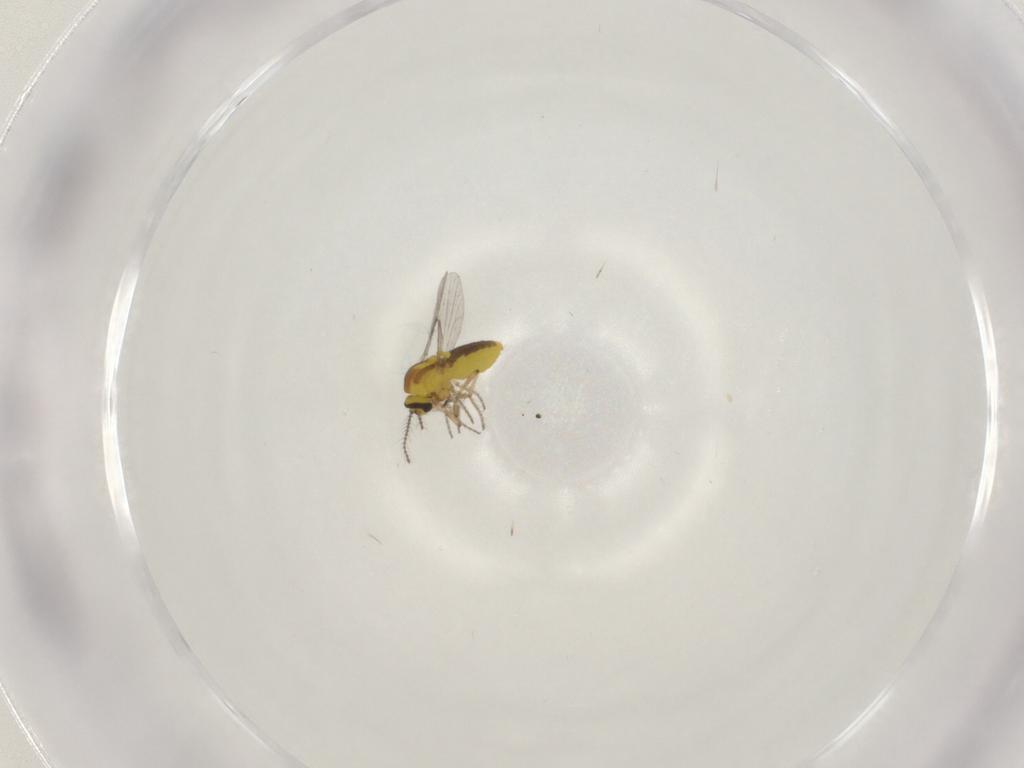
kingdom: Animalia
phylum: Arthropoda
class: Insecta
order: Diptera
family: Ceratopogonidae
